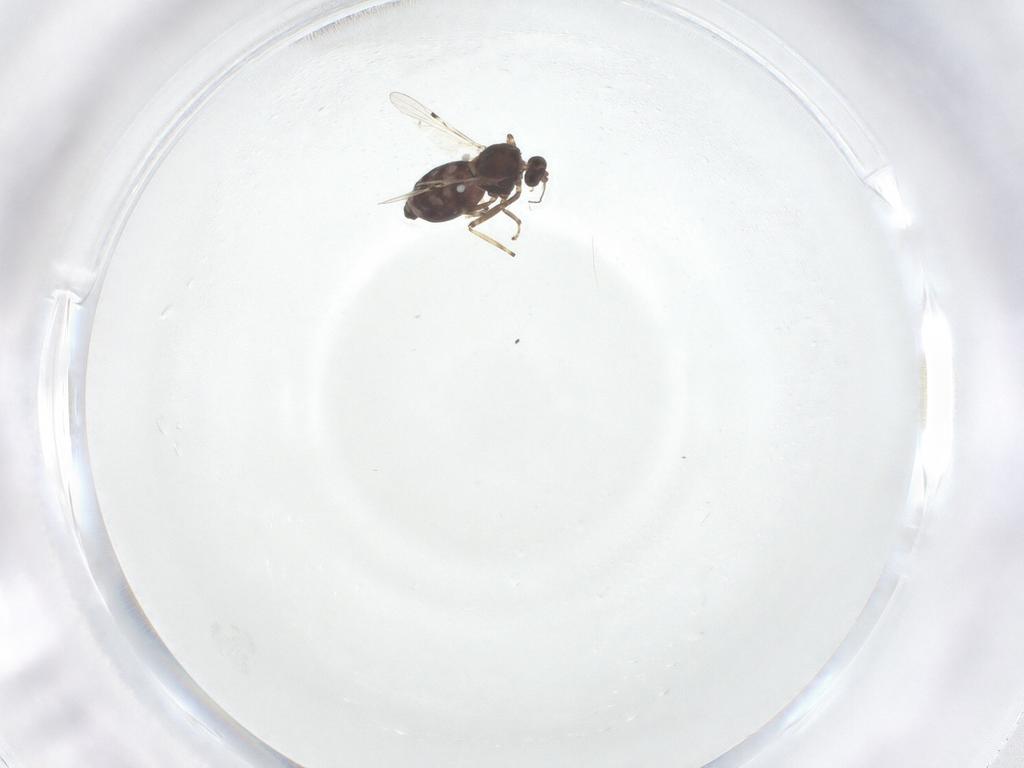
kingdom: Animalia
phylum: Arthropoda
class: Insecta
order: Diptera
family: Ceratopogonidae
